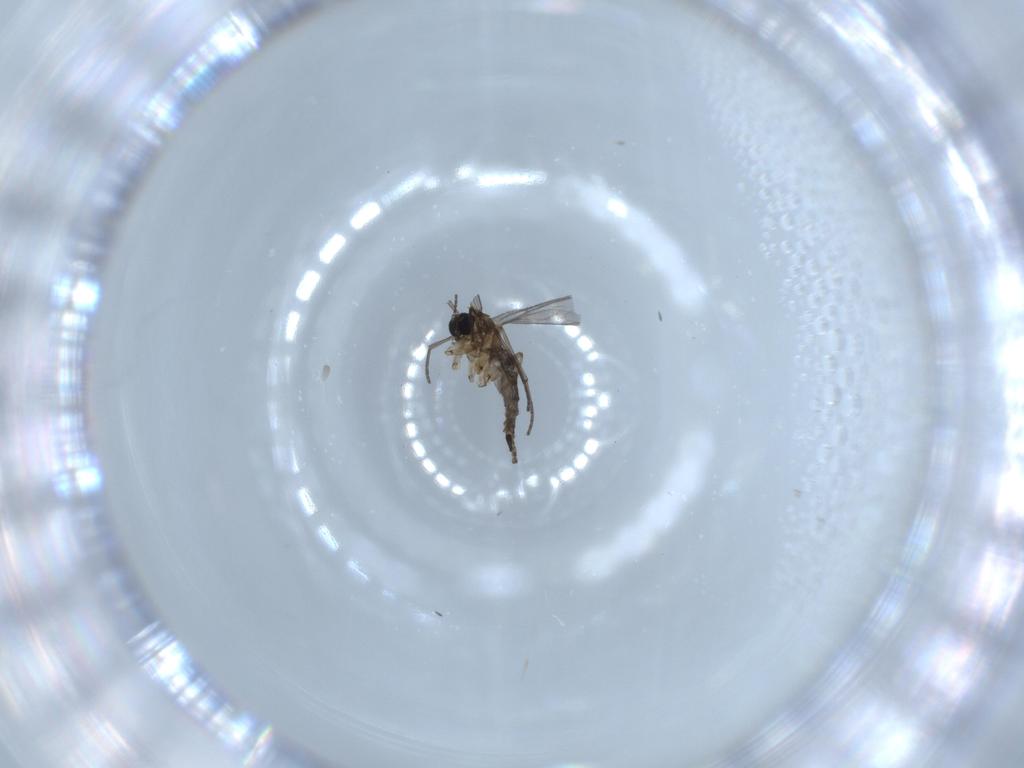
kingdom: Animalia
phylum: Arthropoda
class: Insecta
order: Diptera
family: Sciaridae
